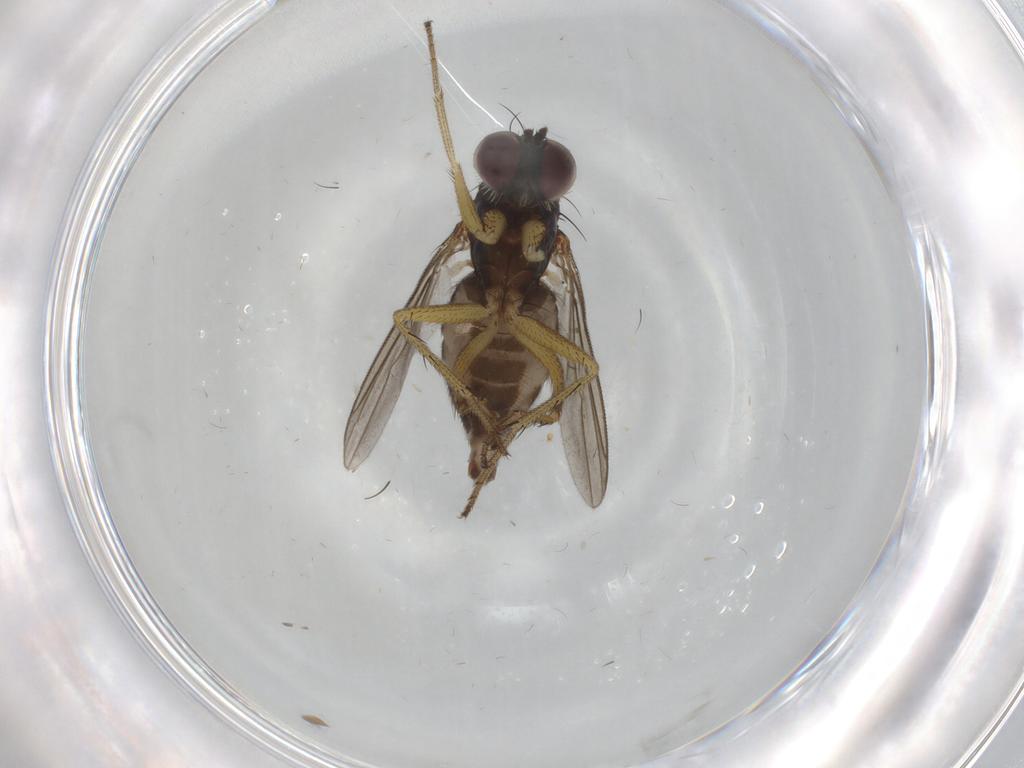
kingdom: Animalia
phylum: Arthropoda
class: Insecta
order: Diptera
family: Dolichopodidae
